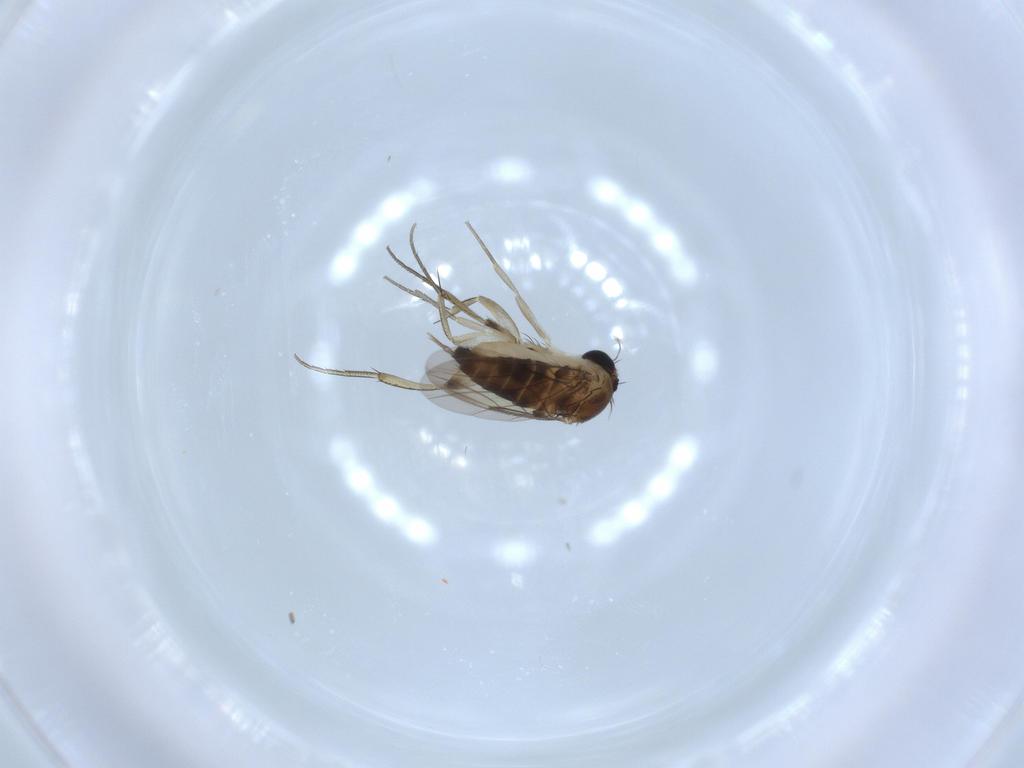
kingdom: Animalia
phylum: Arthropoda
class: Insecta
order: Diptera
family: Phoridae
